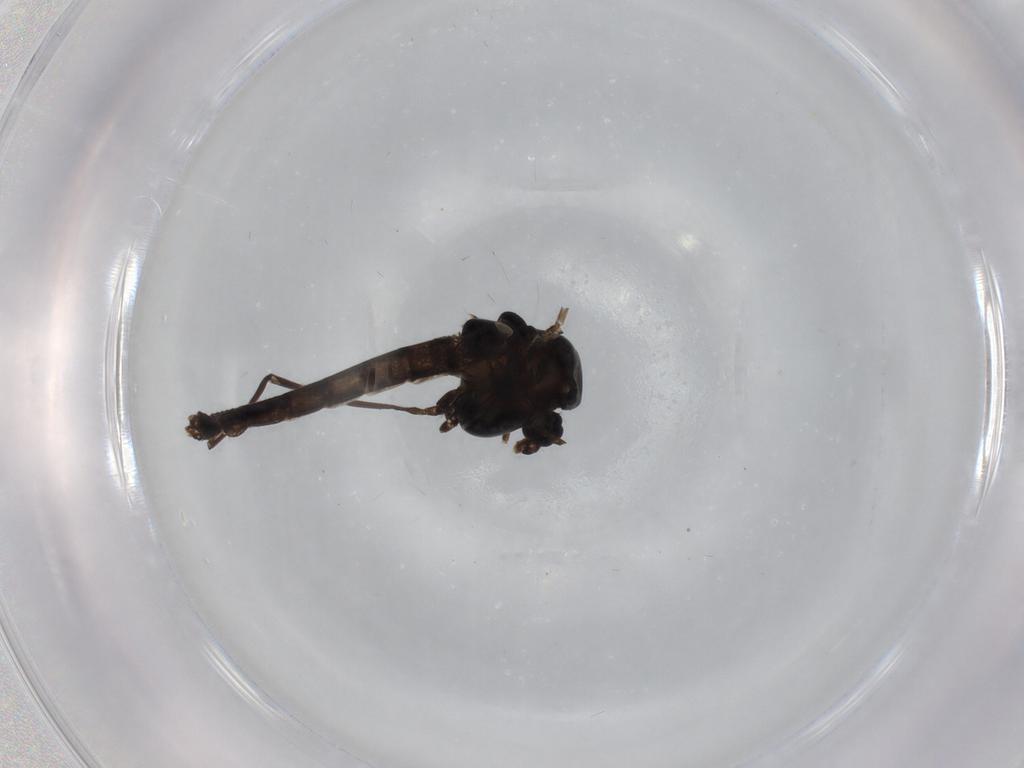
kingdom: Animalia
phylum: Arthropoda
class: Insecta
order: Diptera
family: Chironomidae
